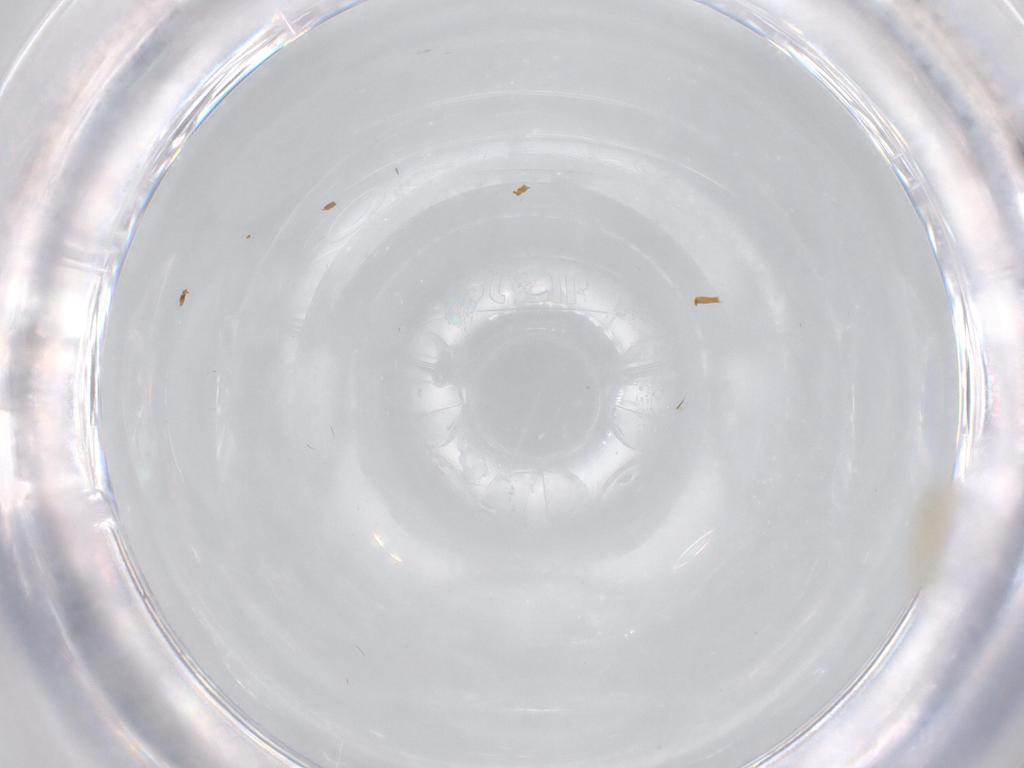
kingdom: Animalia
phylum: Arthropoda
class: Insecta
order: Diptera
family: Sciaridae
